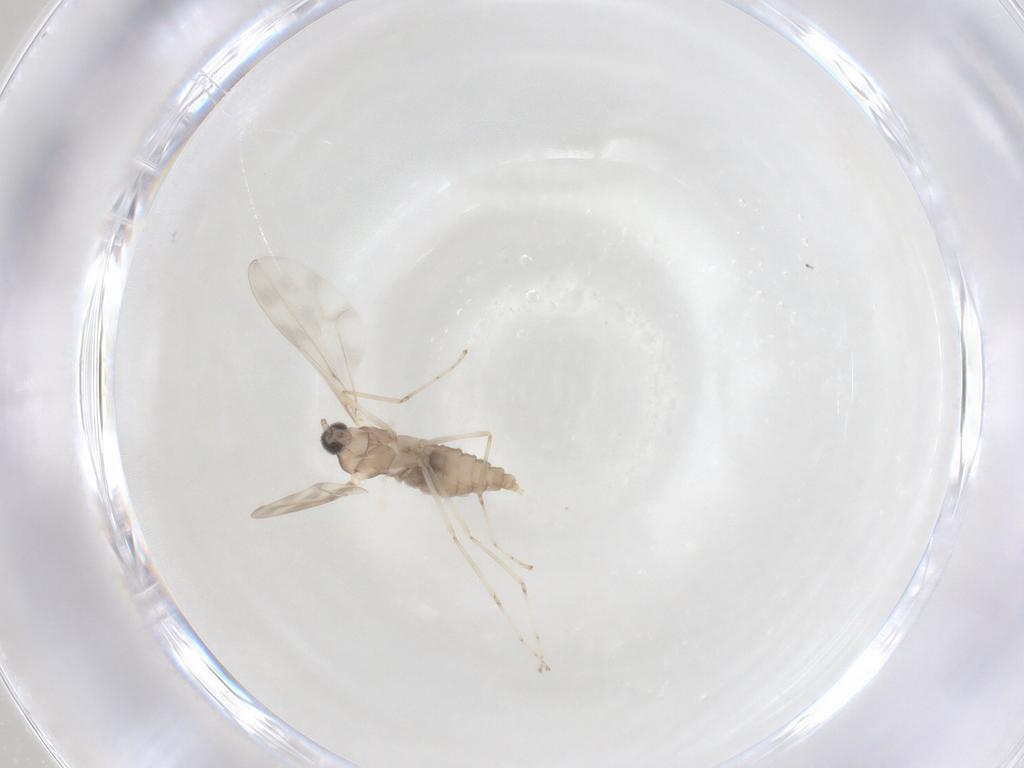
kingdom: Animalia
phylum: Arthropoda
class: Insecta
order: Diptera
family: Cecidomyiidae
